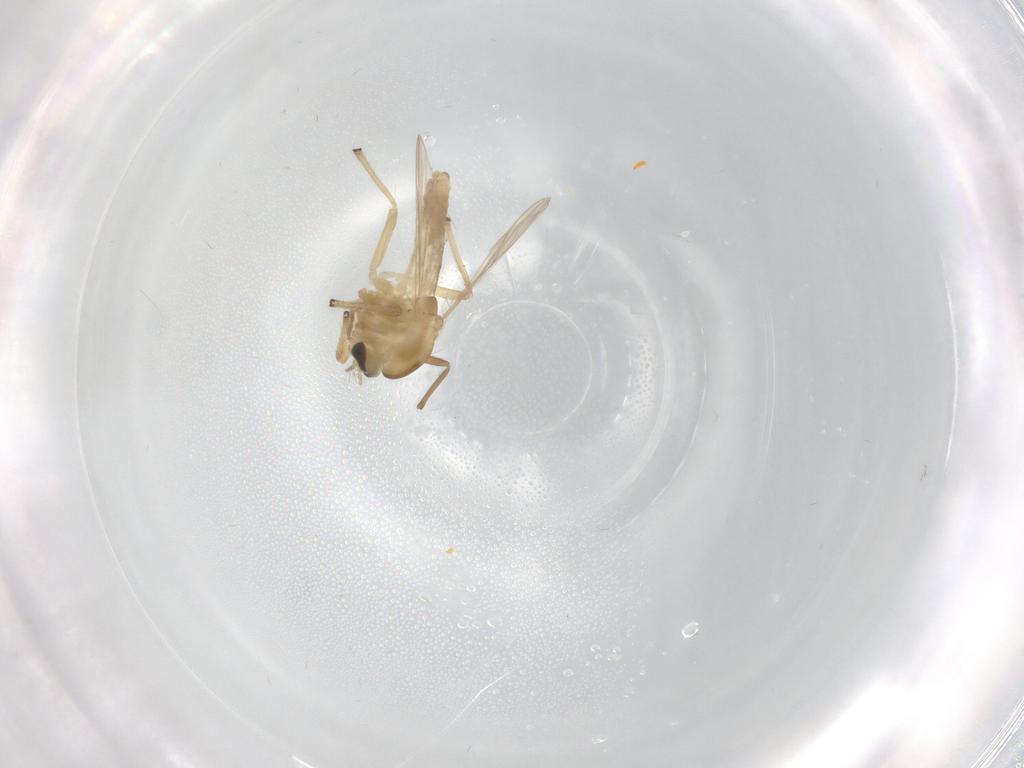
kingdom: Animalia
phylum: Arthropoda
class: Insecta
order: Diptera
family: Chironomidae
